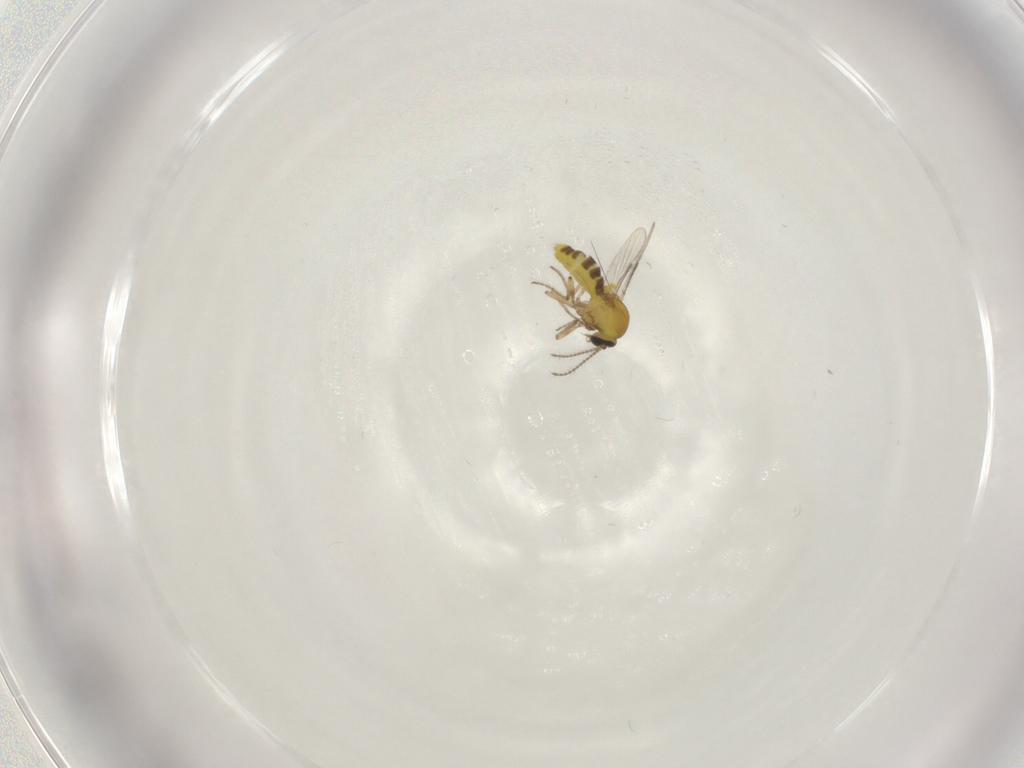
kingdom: Animalia
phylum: Arthropoda
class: Insecta
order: Diptera
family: Ceratopogonidae
